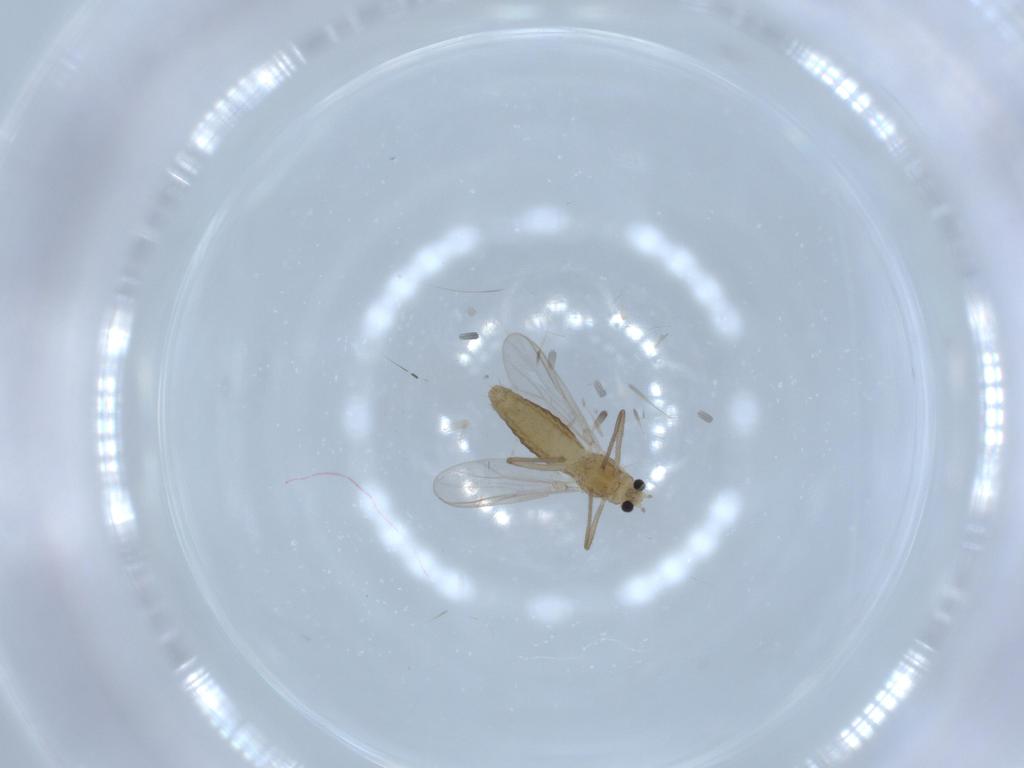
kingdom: Animalia
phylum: Arthropoda
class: Insecta
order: Diptera
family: Chironomidae
